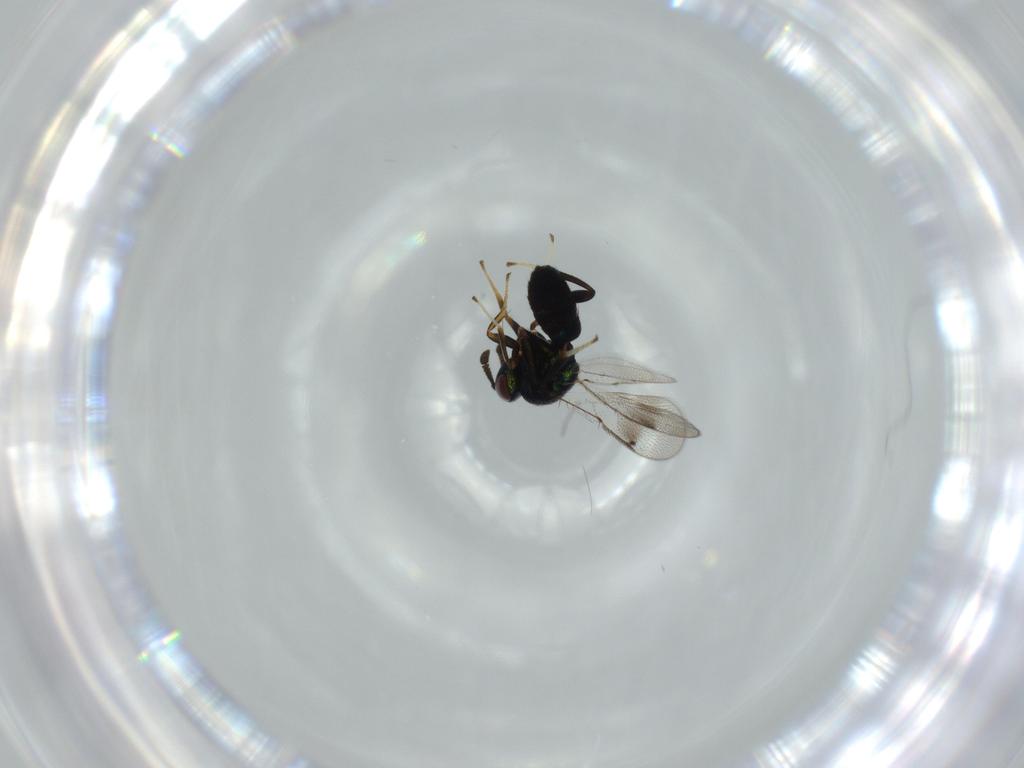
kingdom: Animalia
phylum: Arthropoda
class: Insecta
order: Hymenoptera
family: Ormyridae
